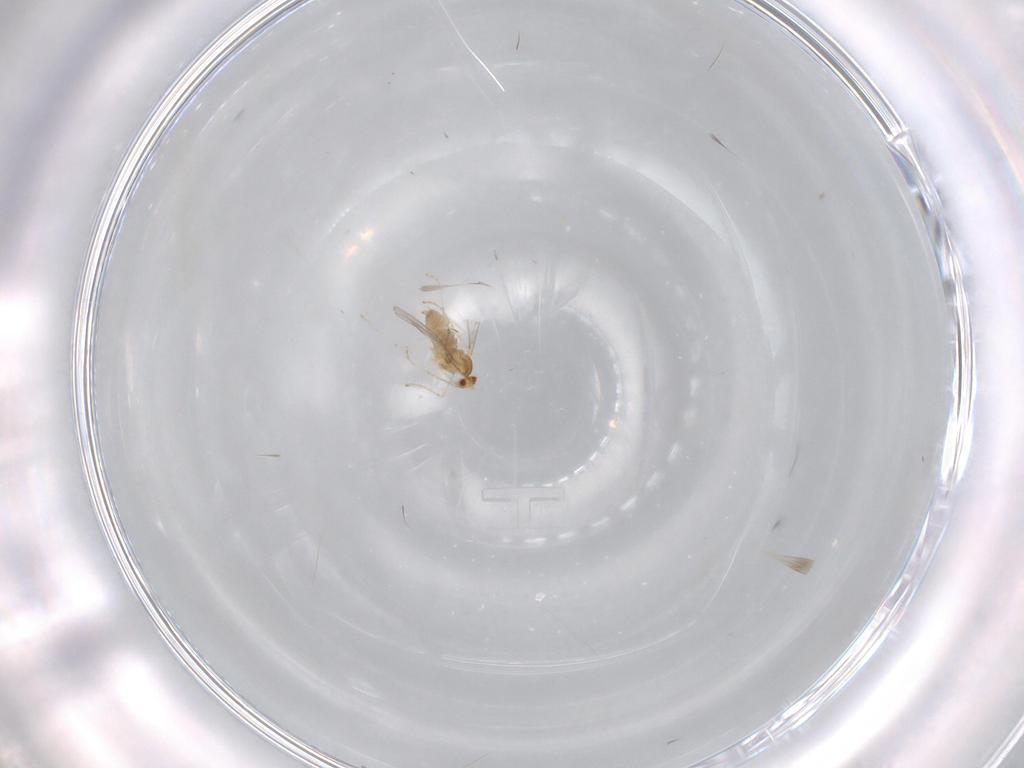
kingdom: Animalia
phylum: Arthropoda
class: Insecta
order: Diptera
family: Cecidomyiidae
